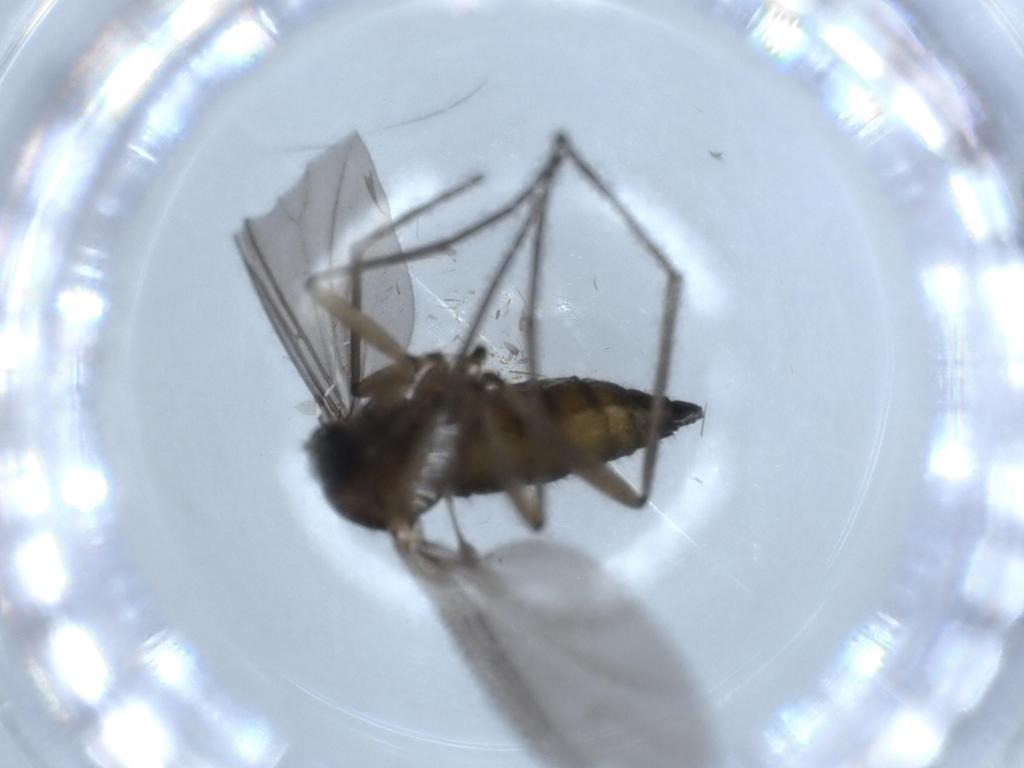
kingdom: Animalia
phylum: Arthropoda
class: Insecta
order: Diptera
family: Sciaridae
